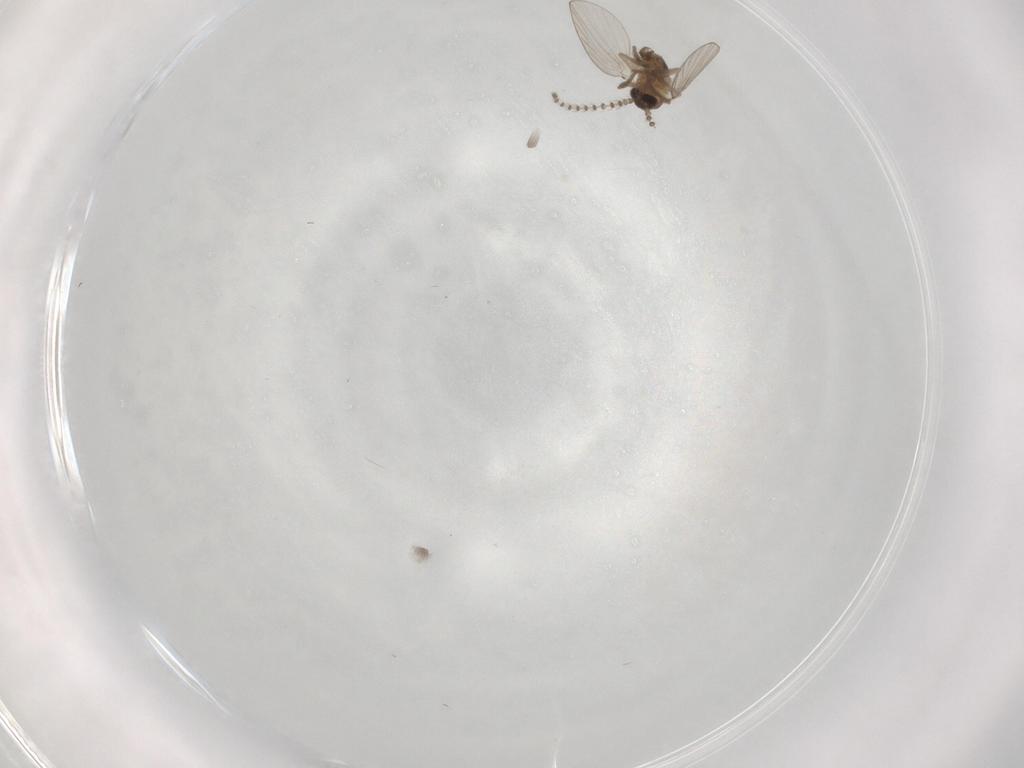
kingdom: Animalia
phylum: Arthropoda
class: Insecta
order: Diptera
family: Psychodidae
